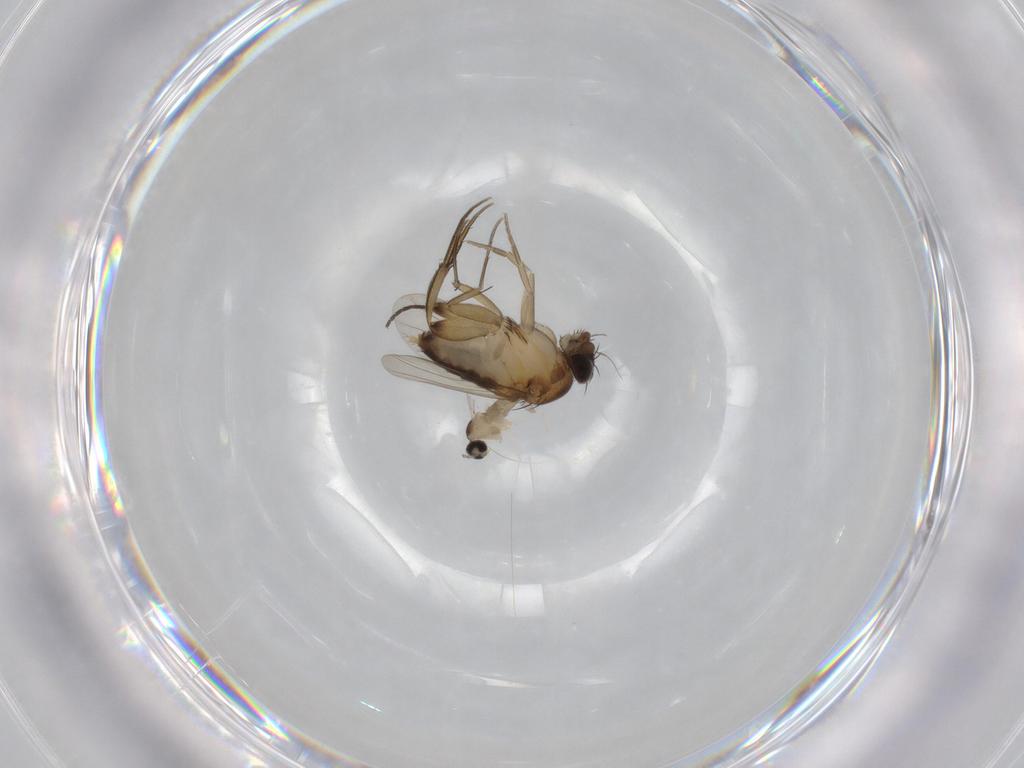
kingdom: Animalia
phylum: Arthropoda
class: Insecta
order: Diptera
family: Phoridae
